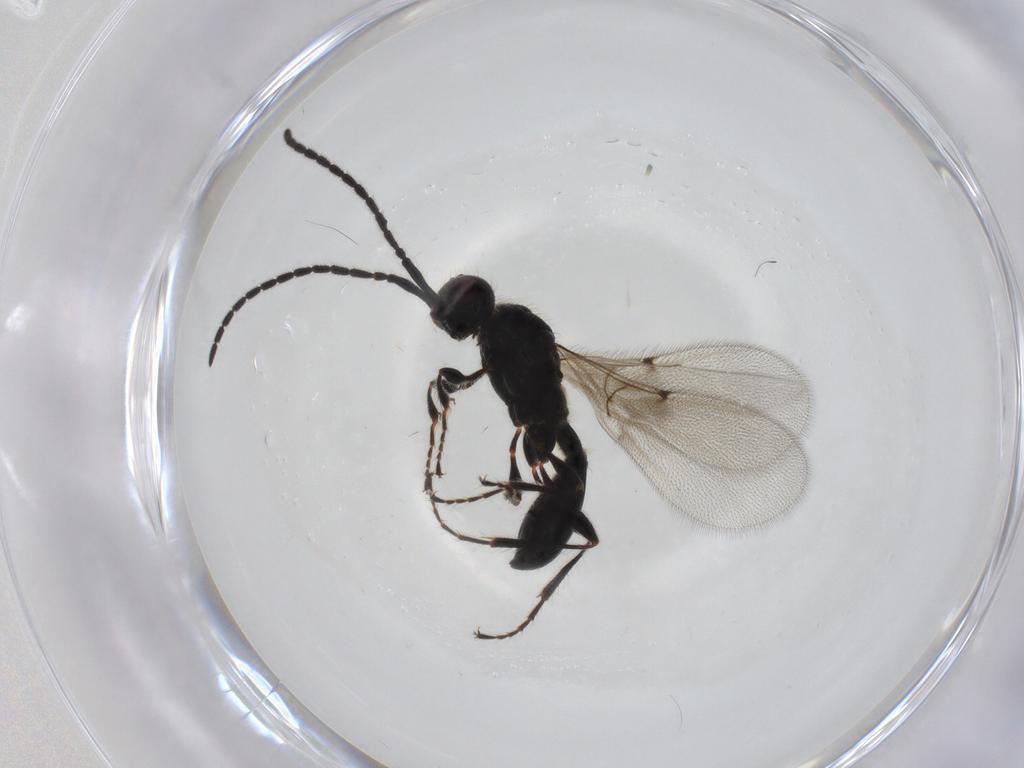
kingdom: Animalia
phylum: Arthropoda
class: Insecta
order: Hymenoptera
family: Diapriidae
